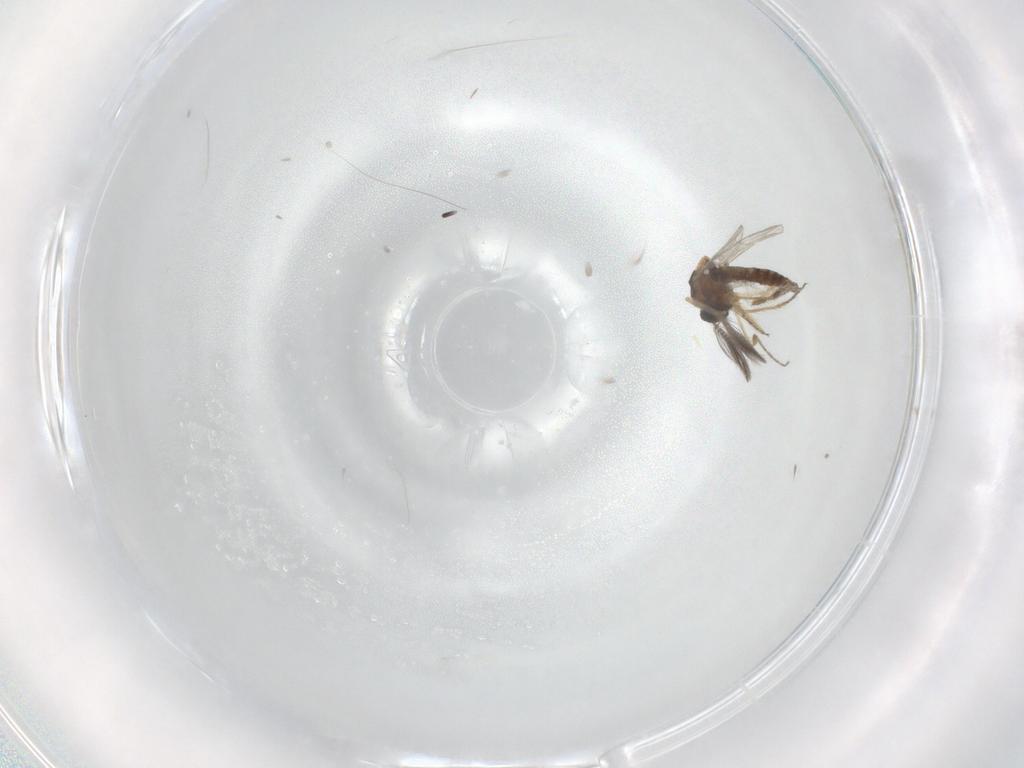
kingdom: Animalia
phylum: Arthropoda
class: Insecta
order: Diptera
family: Ceratopogonidae
